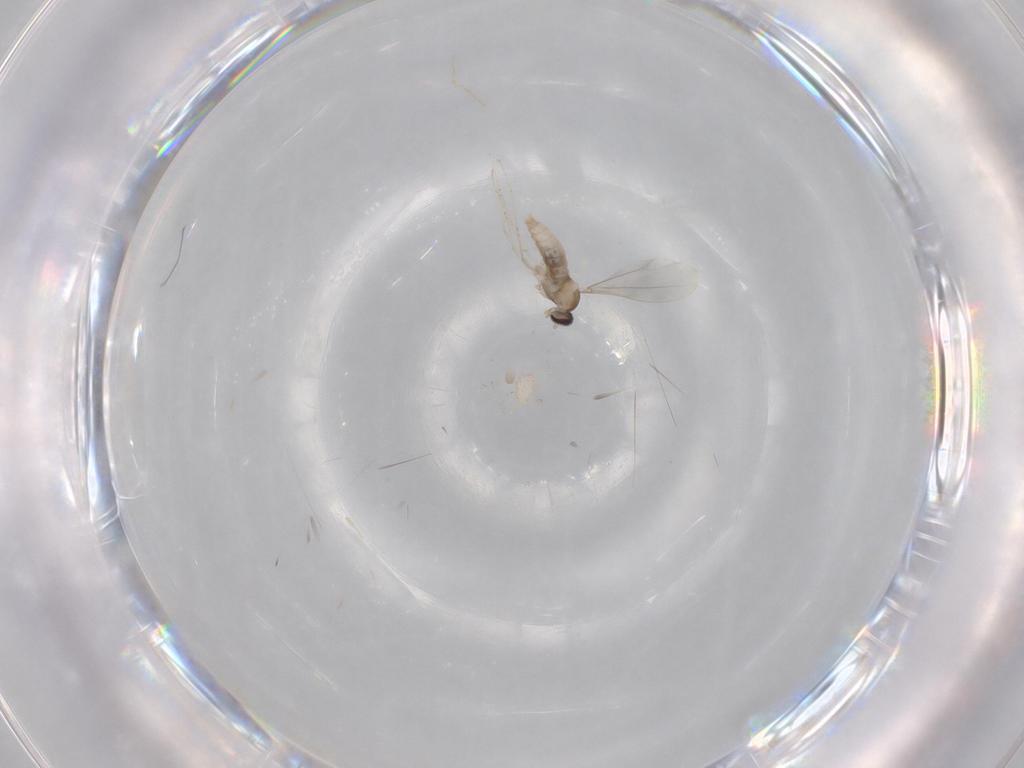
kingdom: Animalia
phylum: Arthropoda
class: Insecta
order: Diptera
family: Cecidomyiidae
